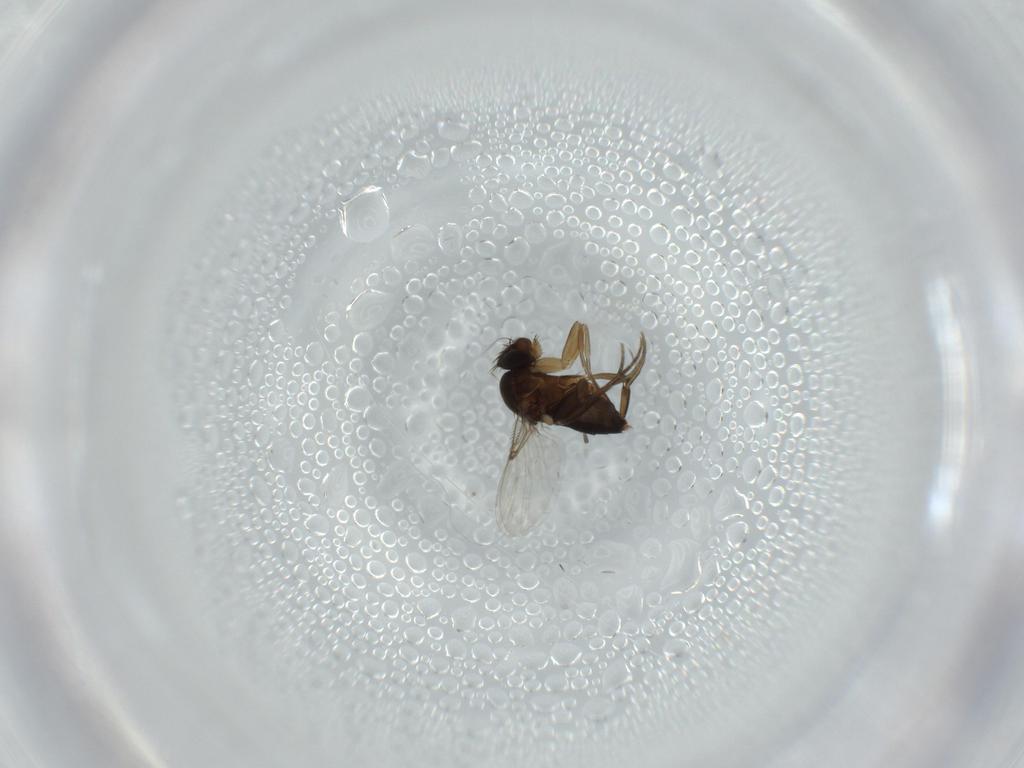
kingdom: Animalia
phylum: Arthropoda
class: Insecta
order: Diptera
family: Phoridae
